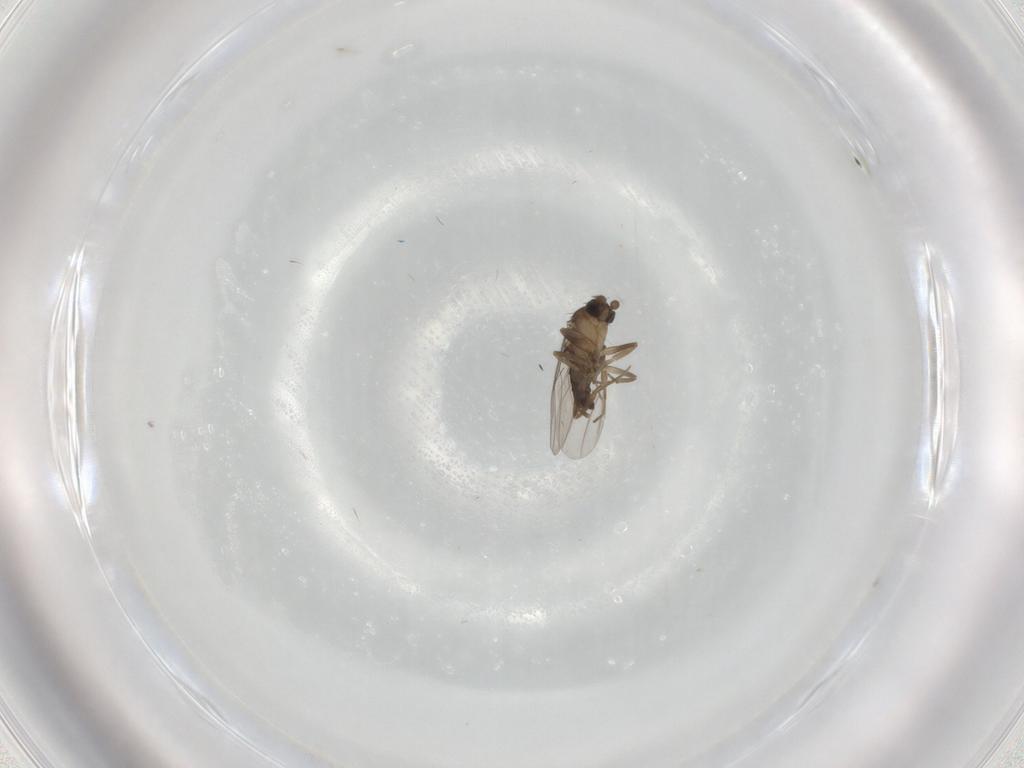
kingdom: Animalia
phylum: Arthropoda
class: Insecta
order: Diptera
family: Phoridae
